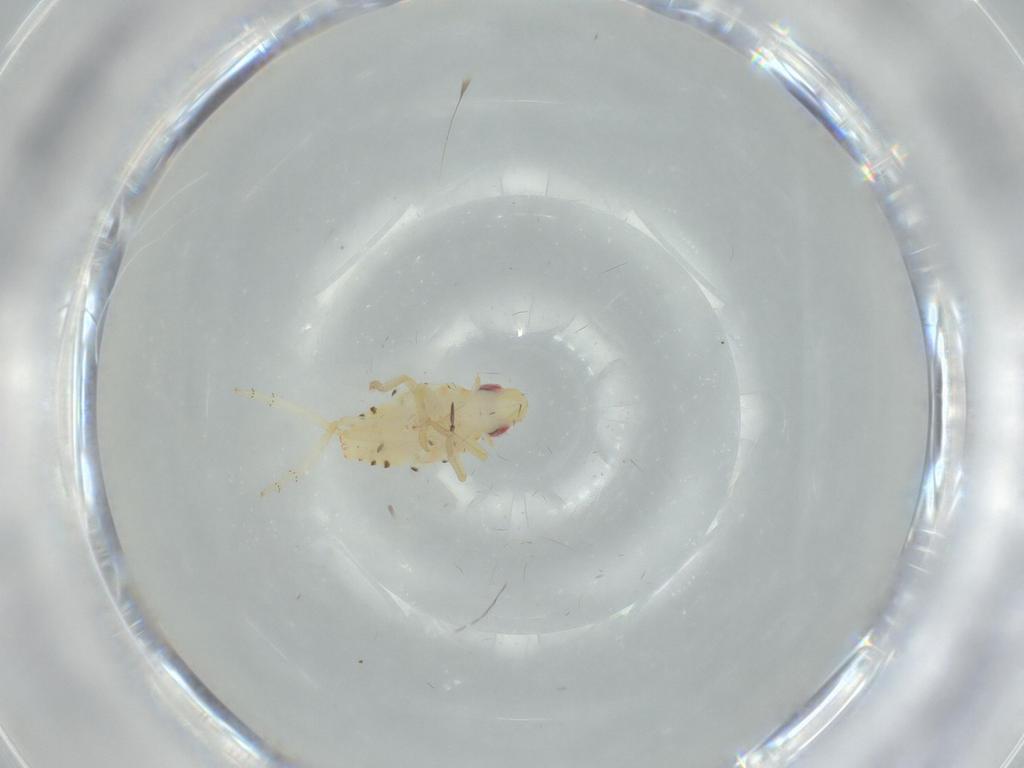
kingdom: Animalia
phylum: Arthropoda
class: Insecta
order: Hemiptera
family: Tropiduchidae
